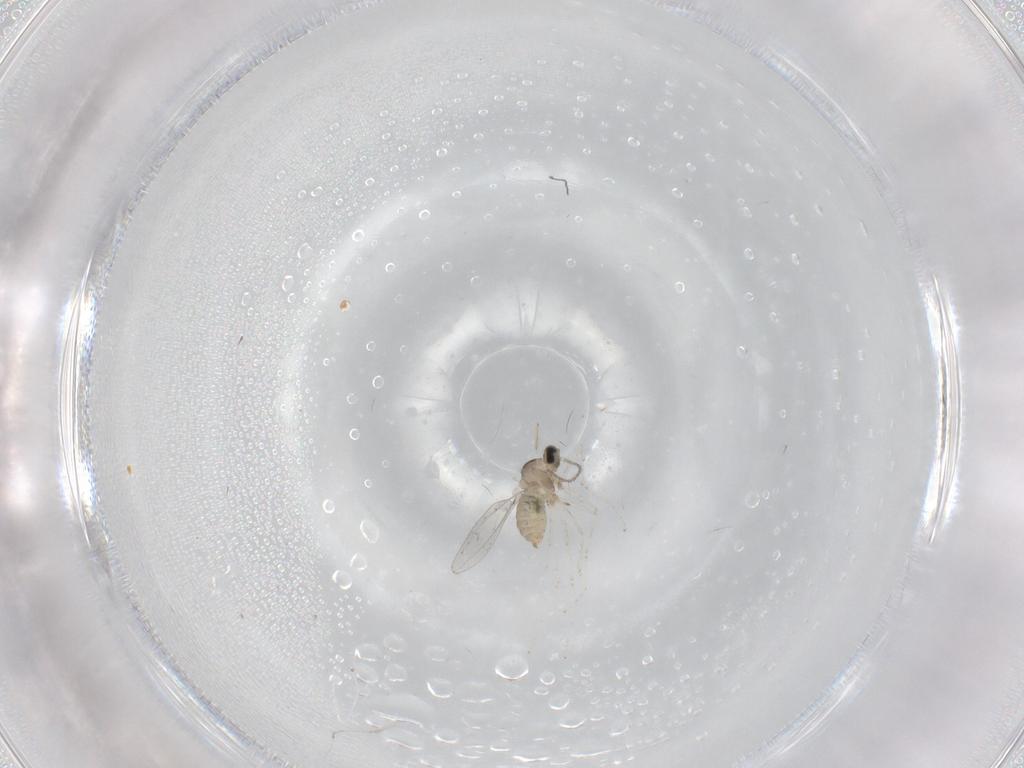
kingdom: Animalia
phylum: Arthropoda
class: Insecta
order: Diptera
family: Cecidomyiidae
